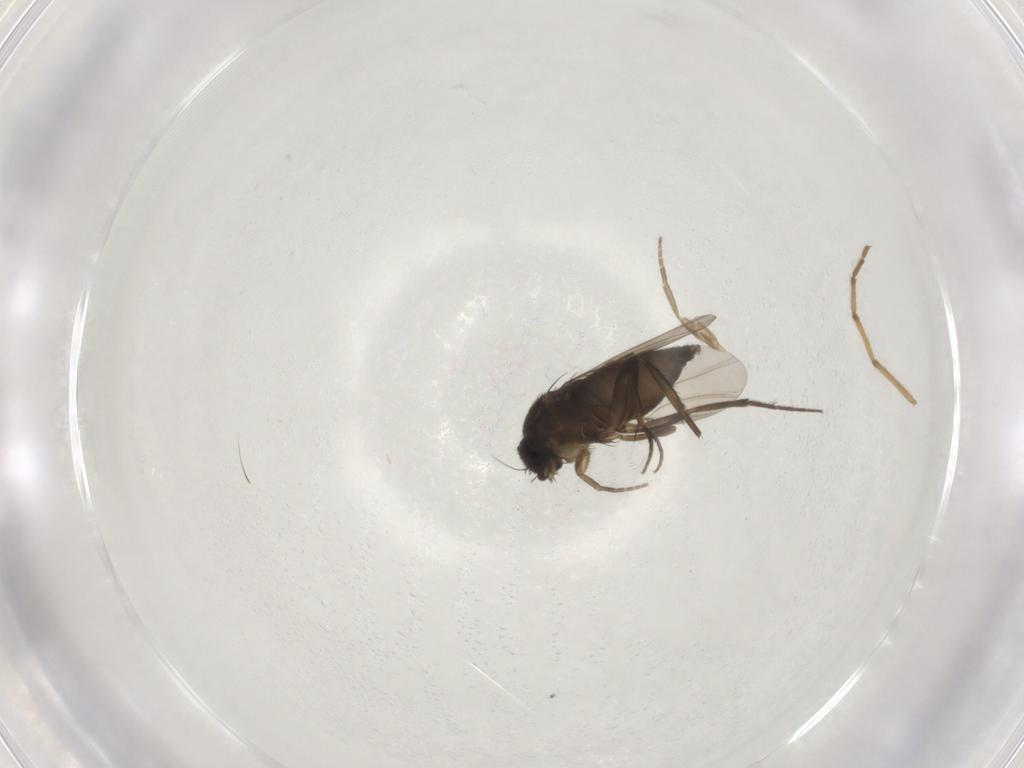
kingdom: Animalia
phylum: Arthropoda
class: Insecta
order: Diptera
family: Phoridae
